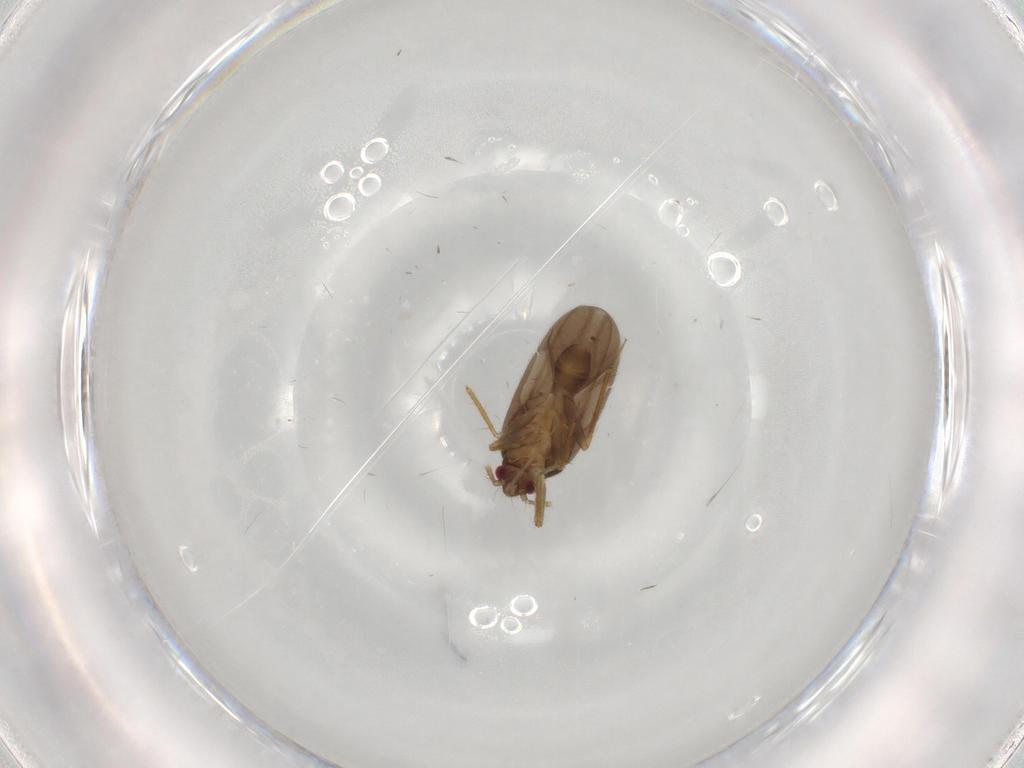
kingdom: Animalia
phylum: Arthropoda
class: Insecta
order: Hemiptera
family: Ceratocombidae
